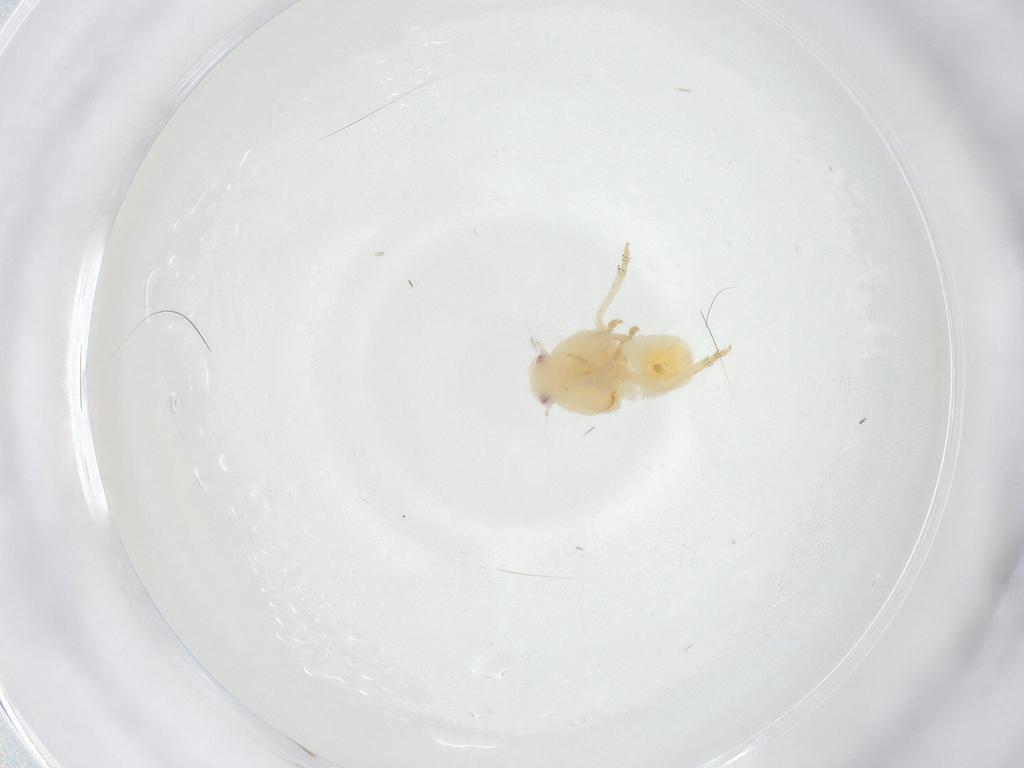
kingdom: Animalia
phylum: Arthropoda
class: Insecta
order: Hemiptera
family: Flatidae
